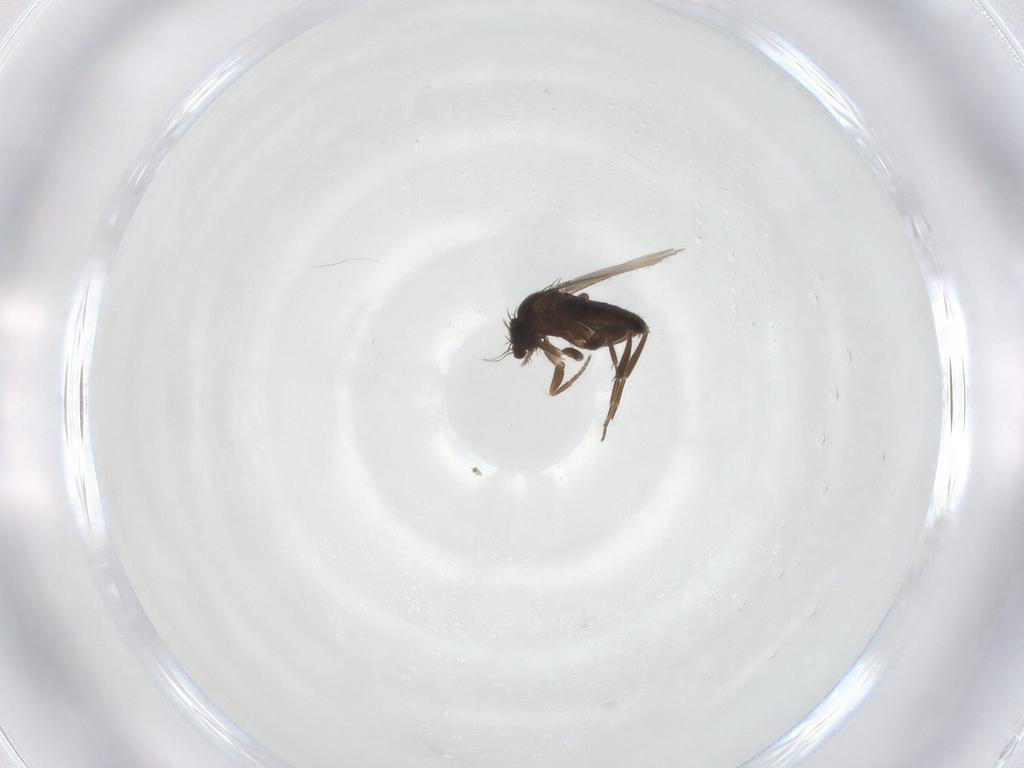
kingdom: Animalia
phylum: Arthropoda
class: Insecta
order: Diptera
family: Phoridae
